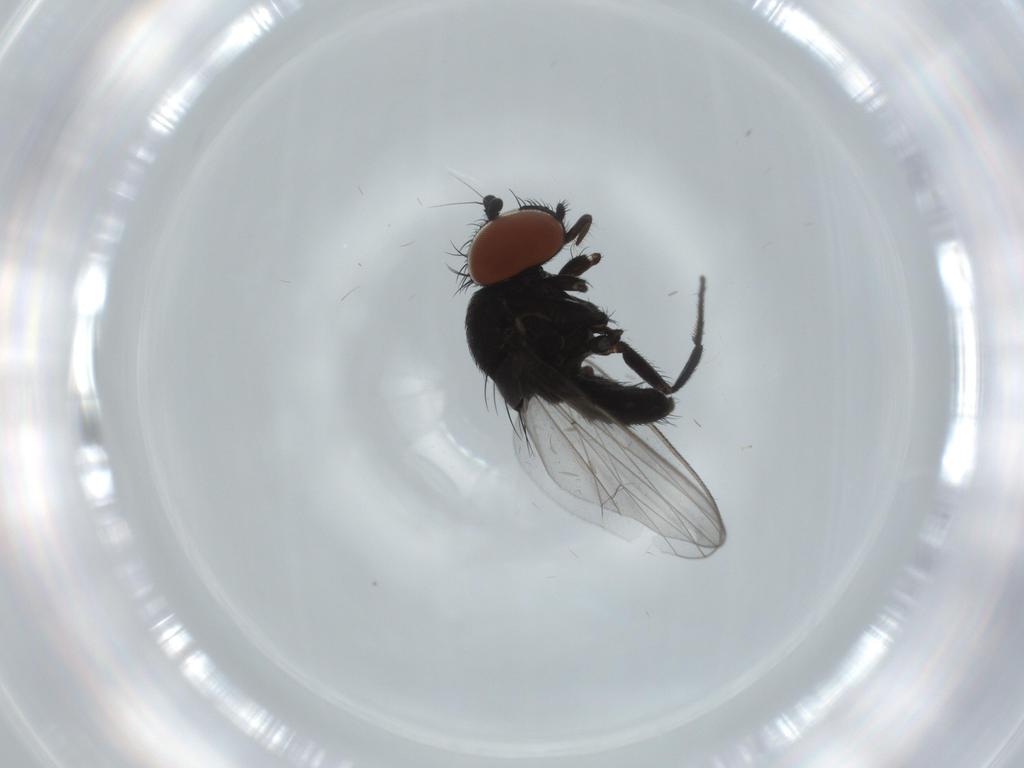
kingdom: Animalia
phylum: Arthropoda
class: Insecta
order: Diptera
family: Milichiidae
